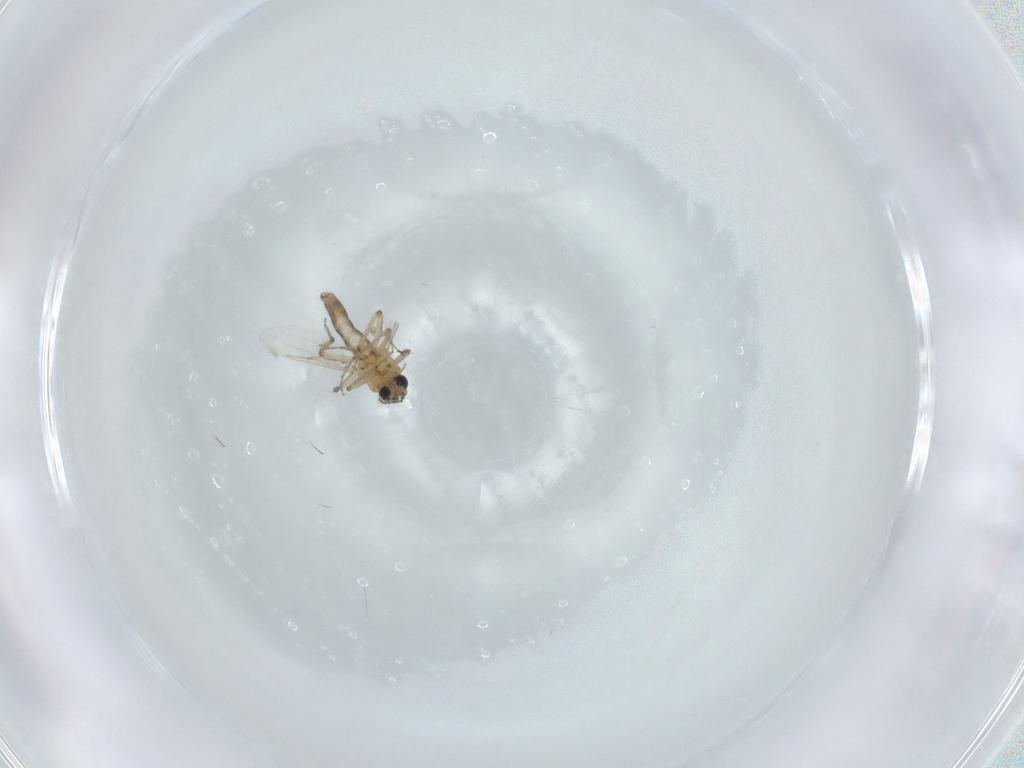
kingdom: Animalia
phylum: Arthropoda
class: Insecta
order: Diptera
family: Ceratopogonidae
